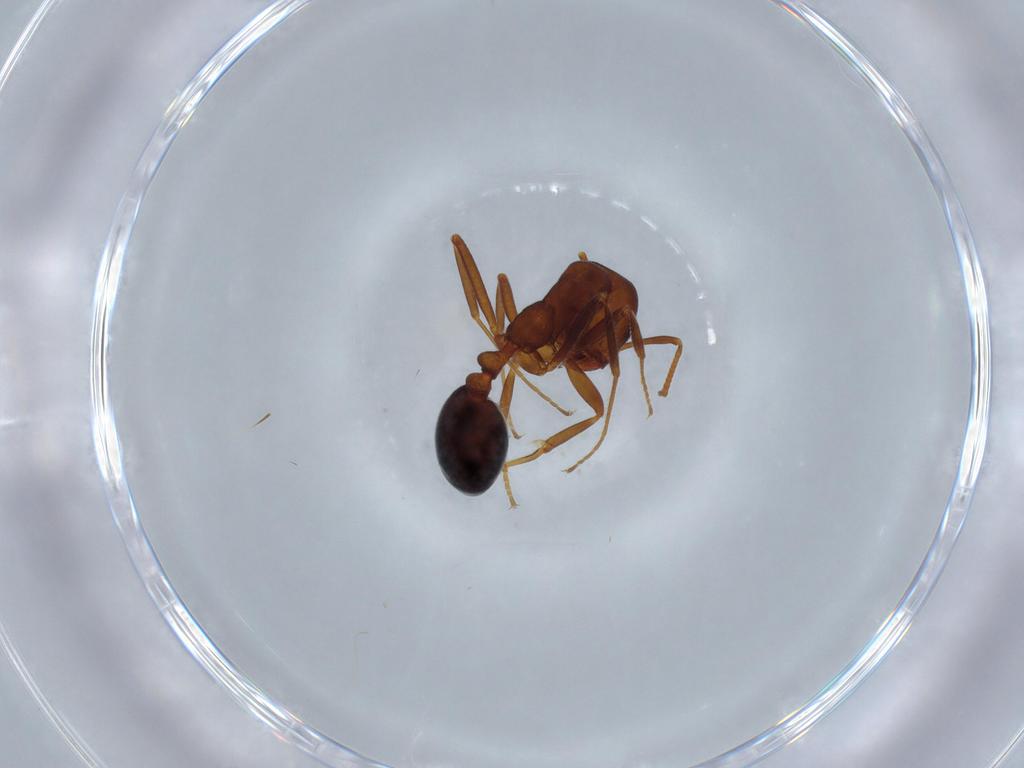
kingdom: Animalia
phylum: Arthropoda
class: Insecta
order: Hymenoptera
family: Formicidae
